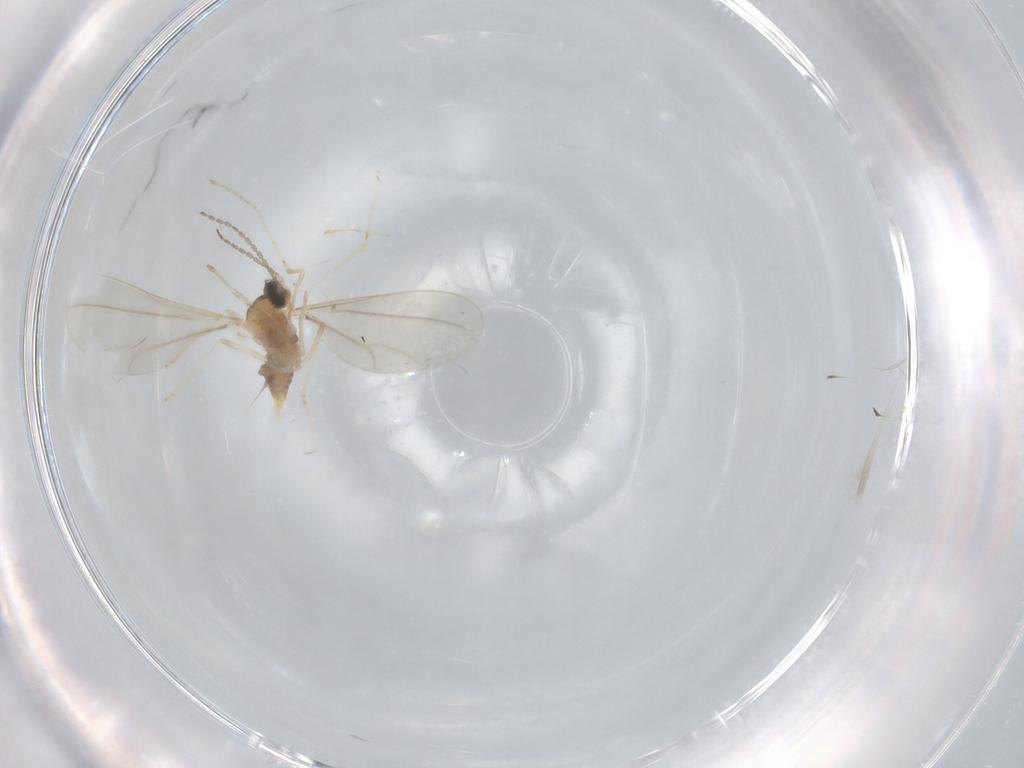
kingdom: Animalia
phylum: Arthropoda
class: Insecta
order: Diptera
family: Cecidomyiidae
